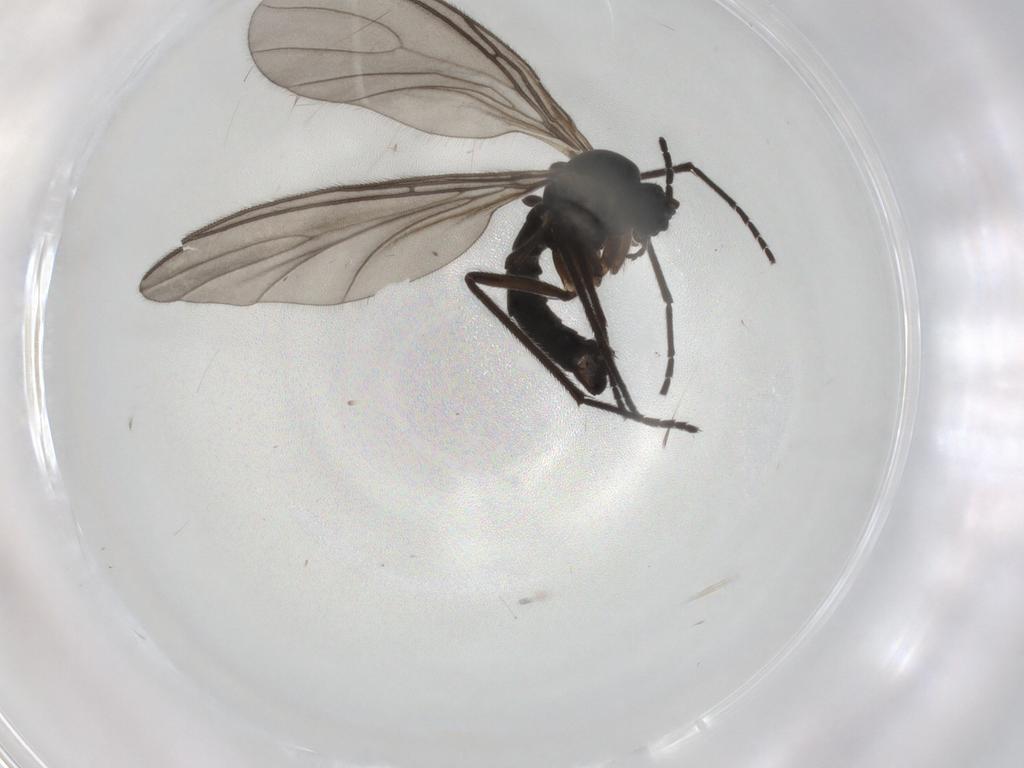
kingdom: Animalia
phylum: Arthropoda
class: Insecta
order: Diptera
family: Sciaridae
